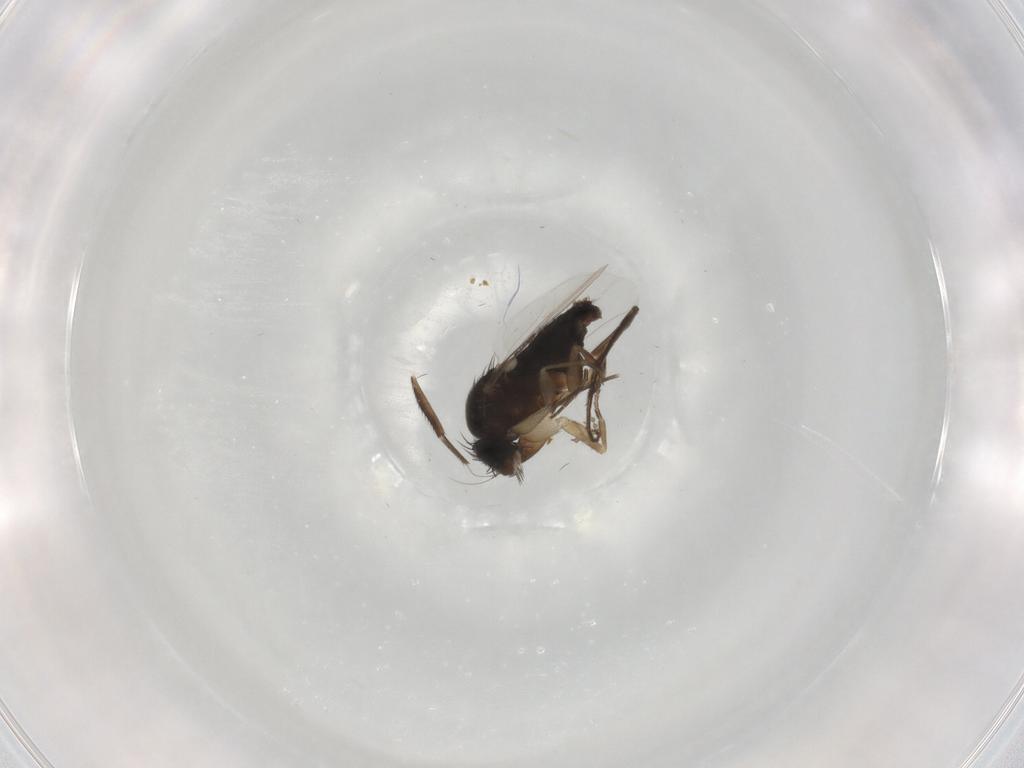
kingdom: Animalia
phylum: Arthropoda
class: Insecta
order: Diptera
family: Cecidomyiidae
